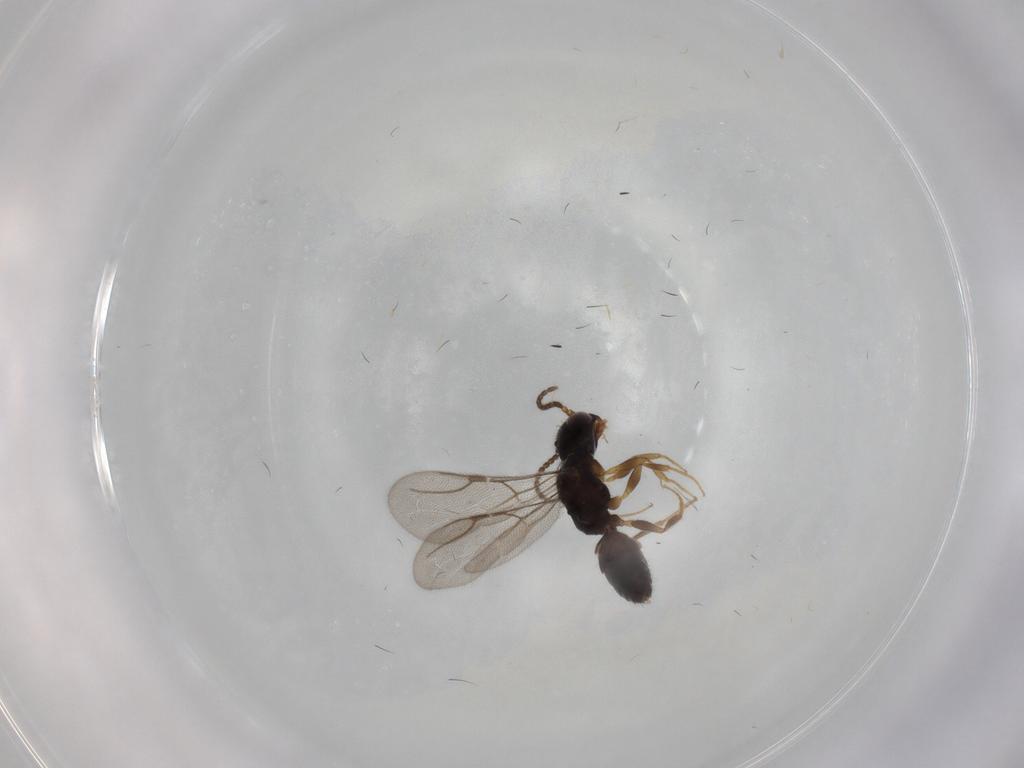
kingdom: Animalia
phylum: Arthropoda
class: Insecta
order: Hymenoptera
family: Bethylidae
